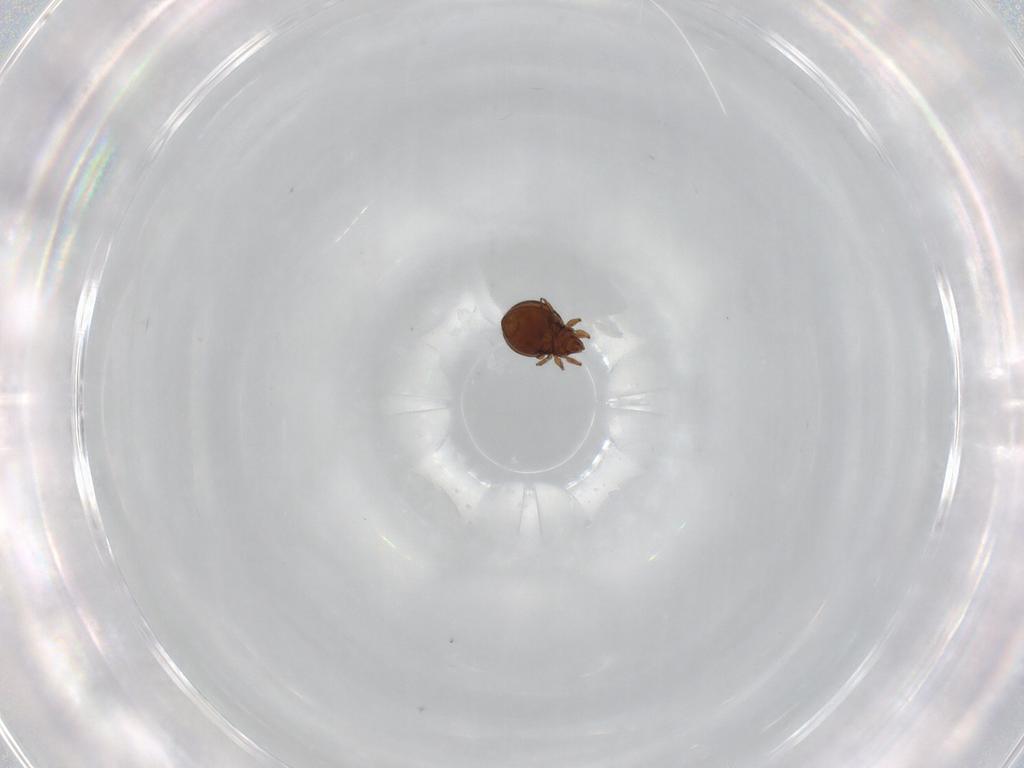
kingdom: Animalia
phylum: Arthropoda
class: Arachnida
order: Sarcoptiformes
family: Oribatulidae
